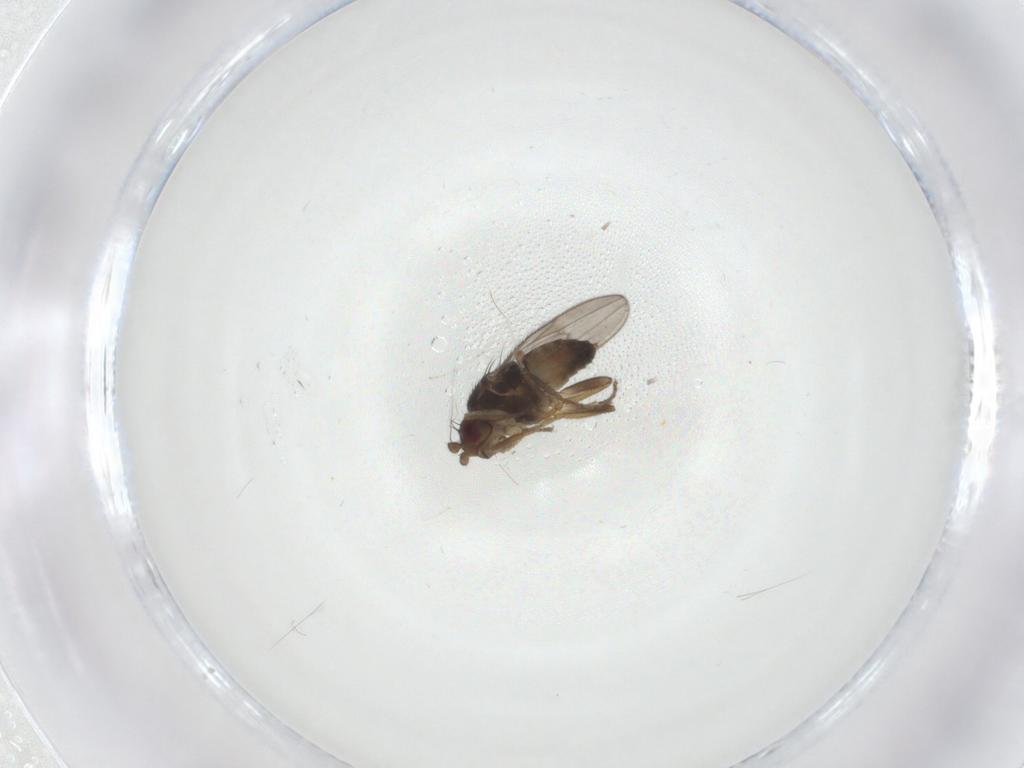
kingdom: Animalia
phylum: Arthropoda
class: Insecta
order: Diptera
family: Sphaeroceridae
